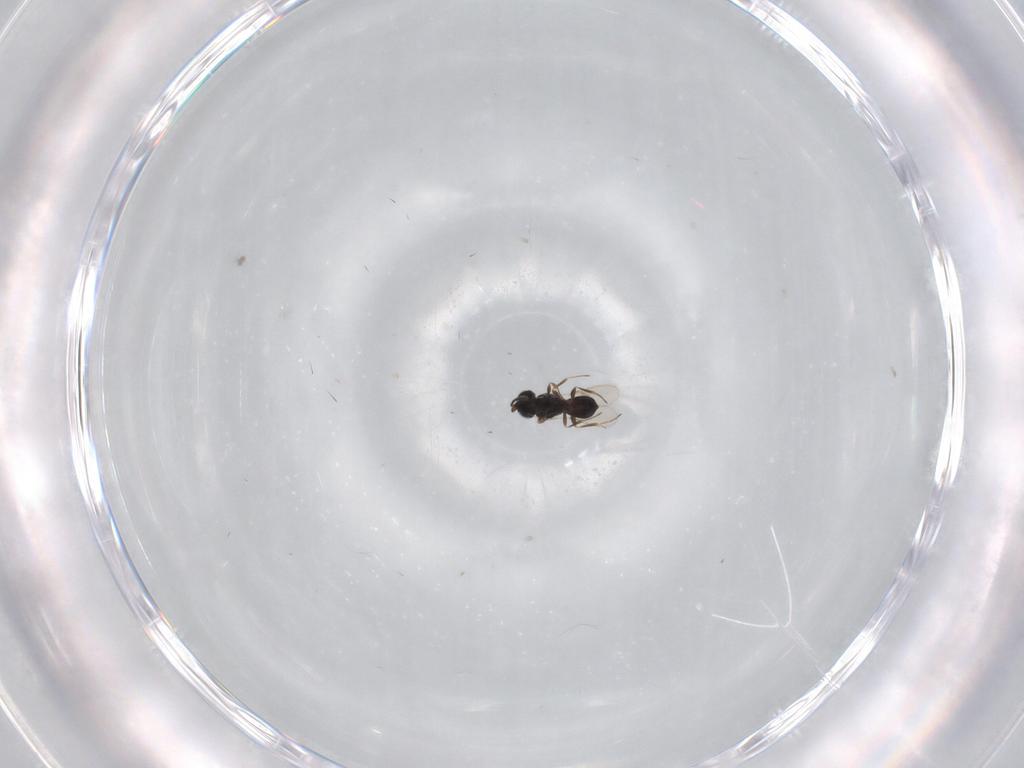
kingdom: Animalia
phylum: Arthropoda
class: Insecta
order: Hymenoptera
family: Scelionidae
